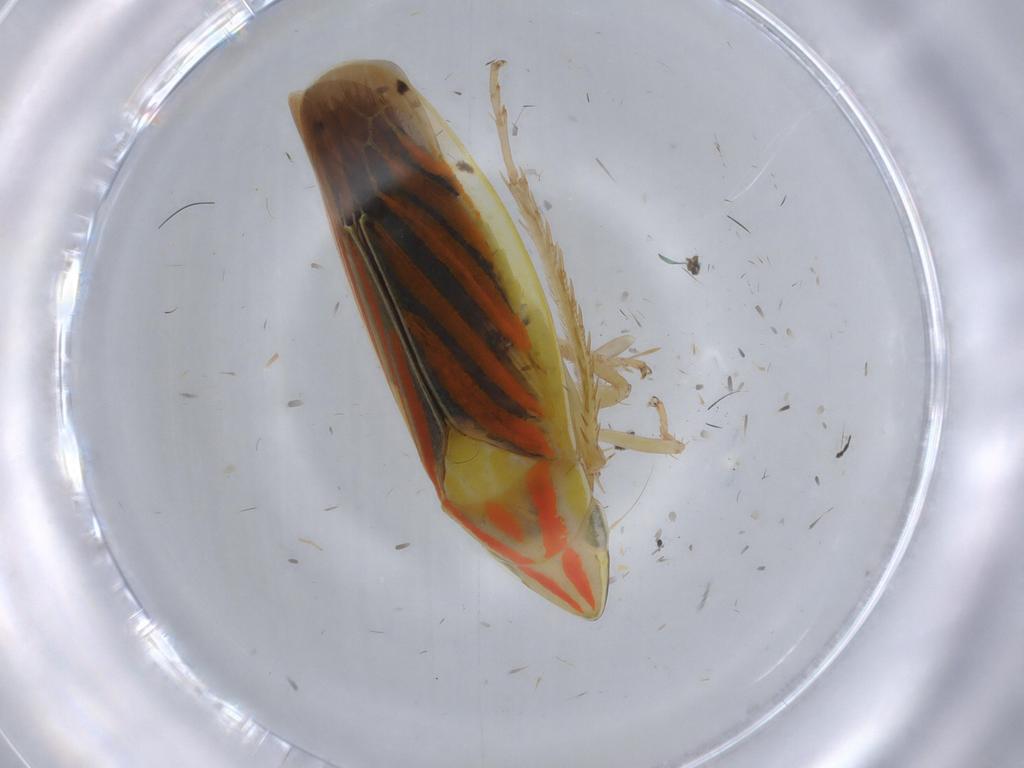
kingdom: Animalia
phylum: Arthropoda
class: Insecta
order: Hemiptera
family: Cicadellidae
